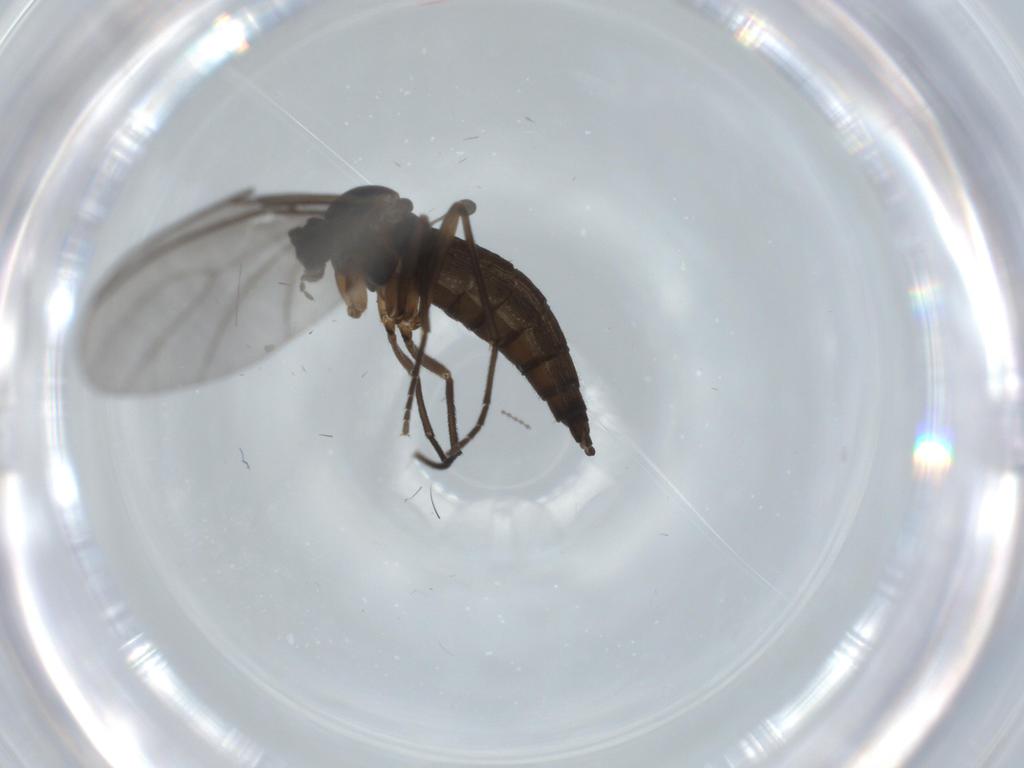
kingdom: Animalia
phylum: Arthropoda
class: Insecta
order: Diptera
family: Sciaridae
